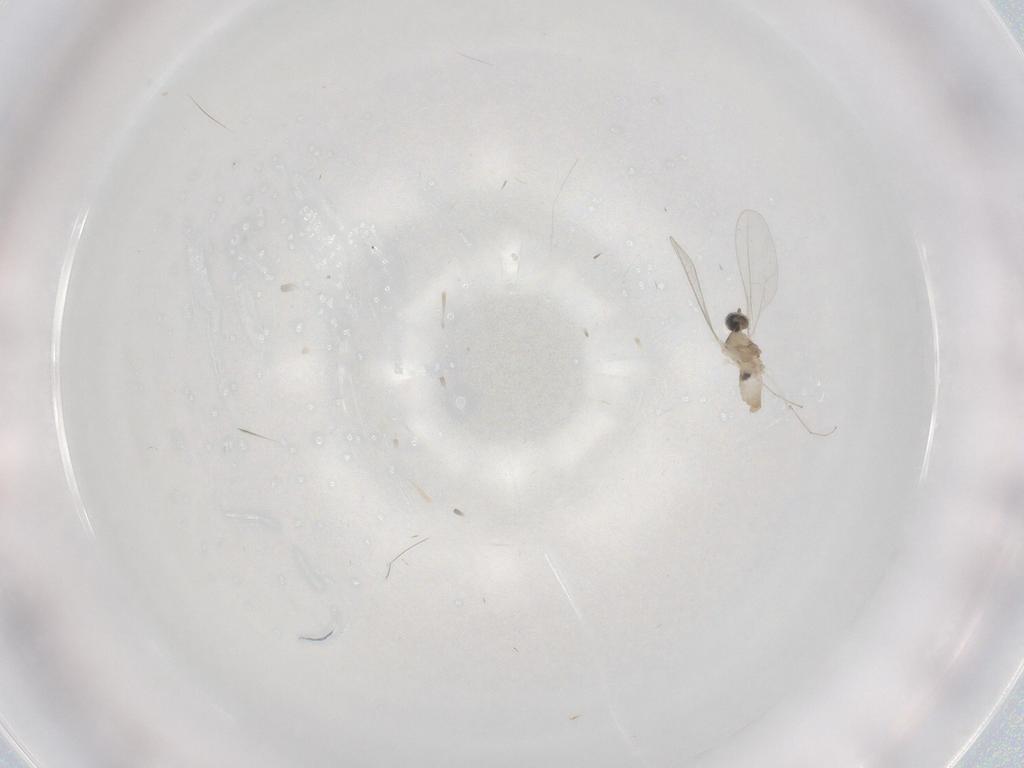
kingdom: Animalia
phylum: Arthropoda
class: Insecta
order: Diptera
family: Cecidomyiidae
